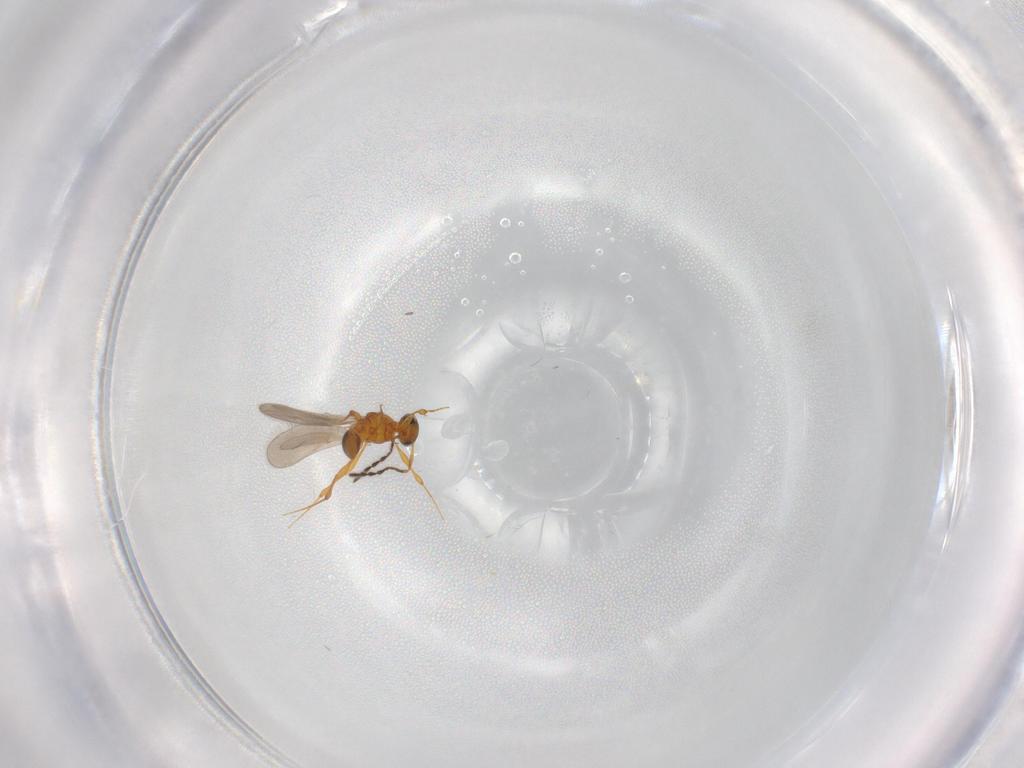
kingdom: Animalia
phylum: Arthropoda
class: Insecta
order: Hymenoptera
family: Platygastridae
